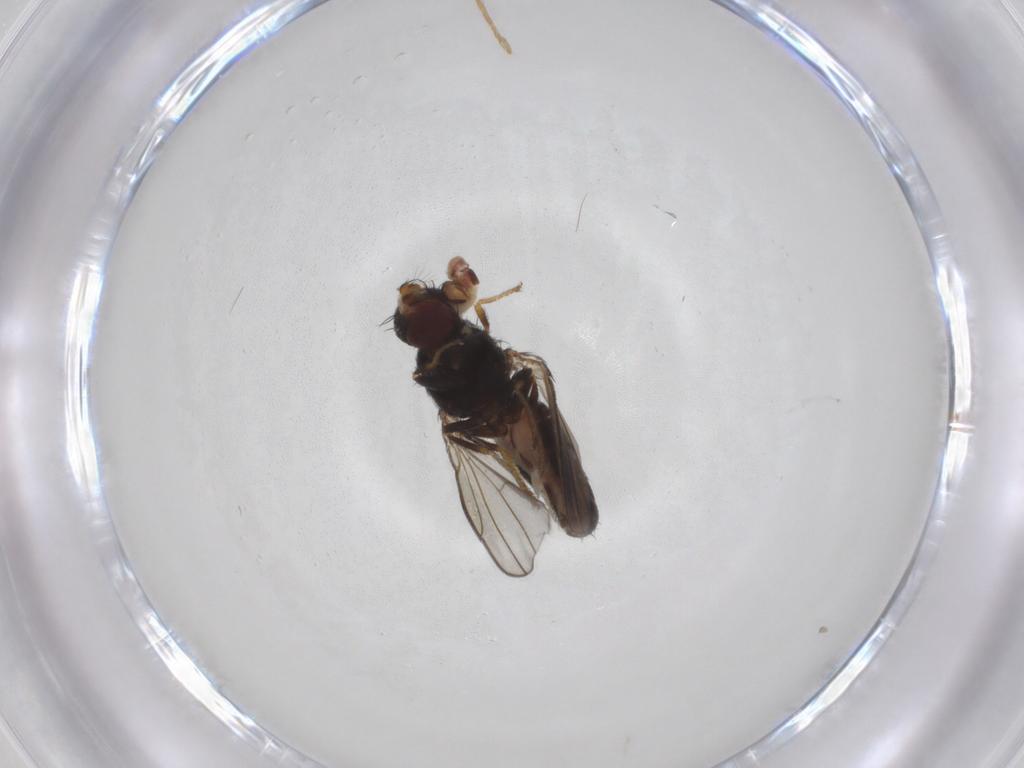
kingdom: Animalia
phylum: Arthropoda
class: Insecta
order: Diptera
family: Ephydridae
